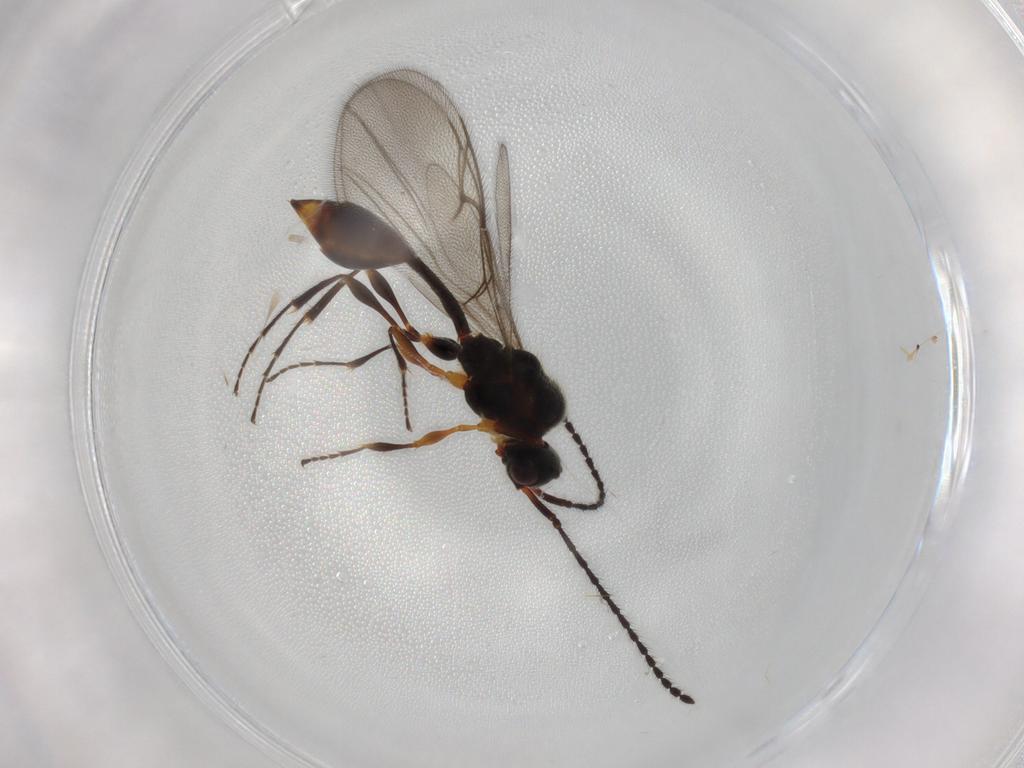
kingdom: Animalia
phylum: Arthropoda
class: Insecta
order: Hymenoptera
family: Diapriidae
